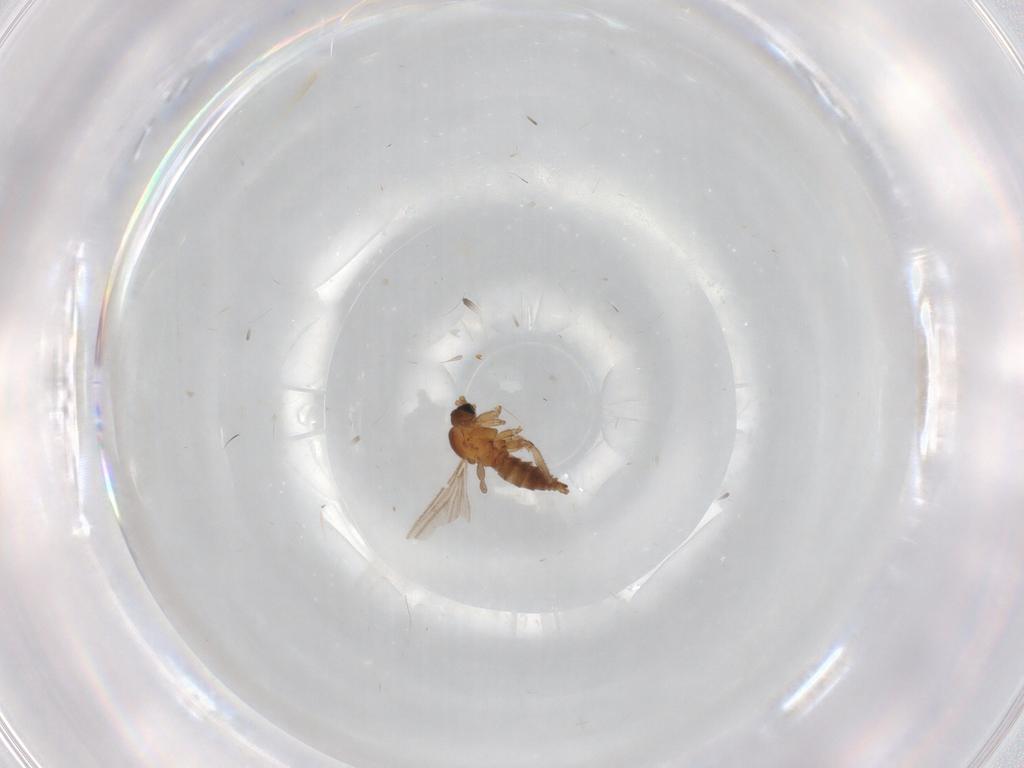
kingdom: Animalia
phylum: Arthropoda
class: Insecta
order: Diptera
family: Sciaridae
